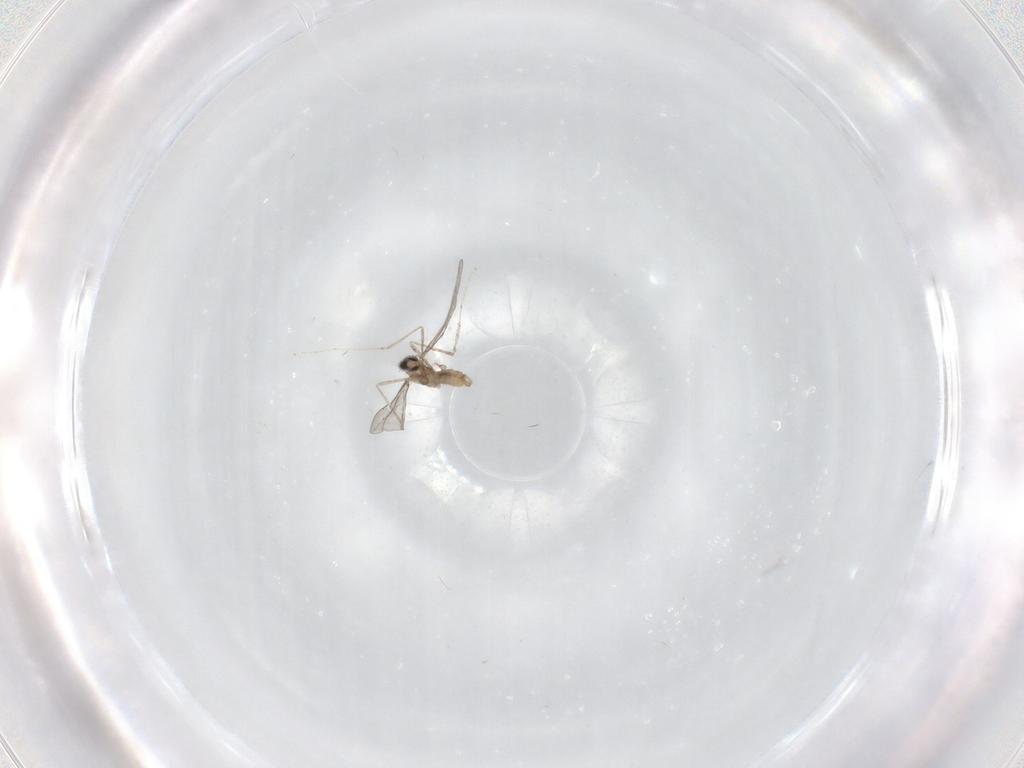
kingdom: Animalia
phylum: Arthropoda
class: Insecta
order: Diptera
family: Cecidomyiidae
